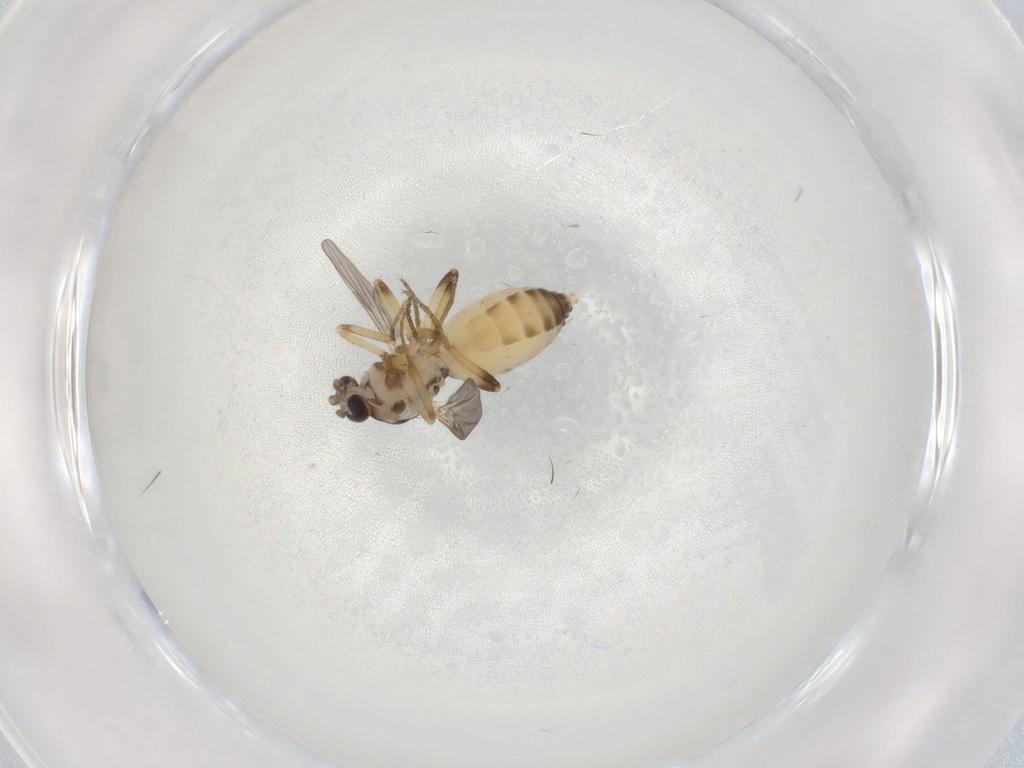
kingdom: Animalia
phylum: Arthropoda
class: Insecta
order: Diptera
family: Ceratopogonidae
